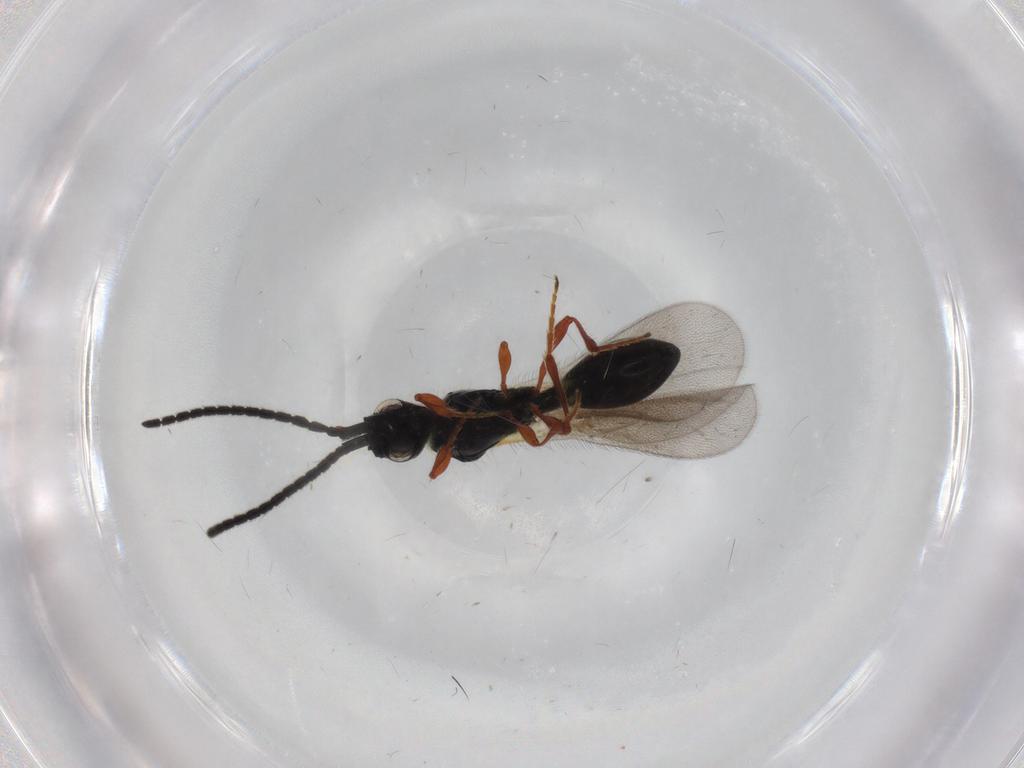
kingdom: Animalia
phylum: Arthropoda
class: Insecta
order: Hymenoptera
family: Diapriidae
